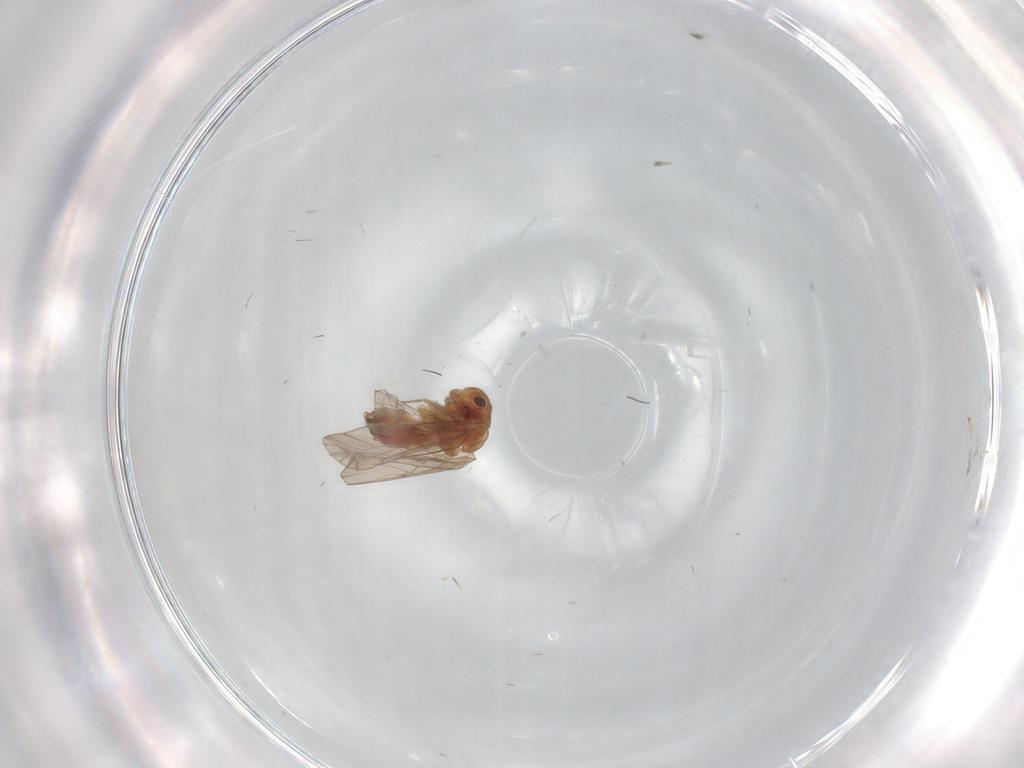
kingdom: Animalia
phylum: Arthropoda
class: Insecta
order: Psocodea
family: Ectopsocidae
